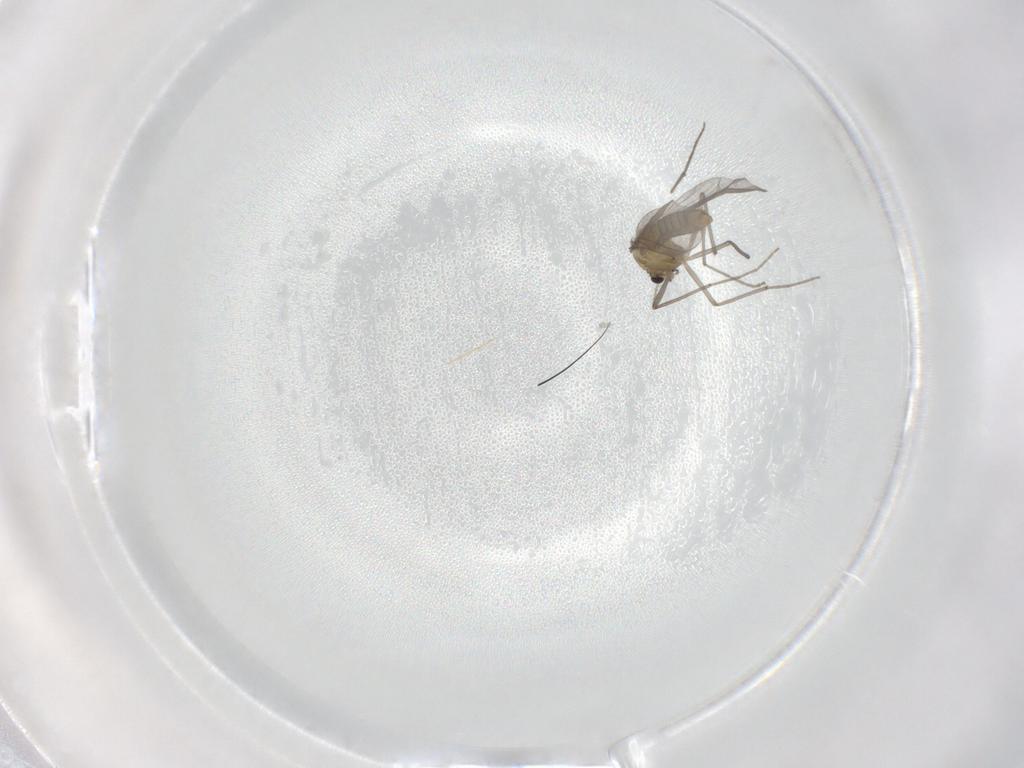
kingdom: Animalia
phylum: Arthropoda
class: Insecta
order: Diptera
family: Chironomidae
